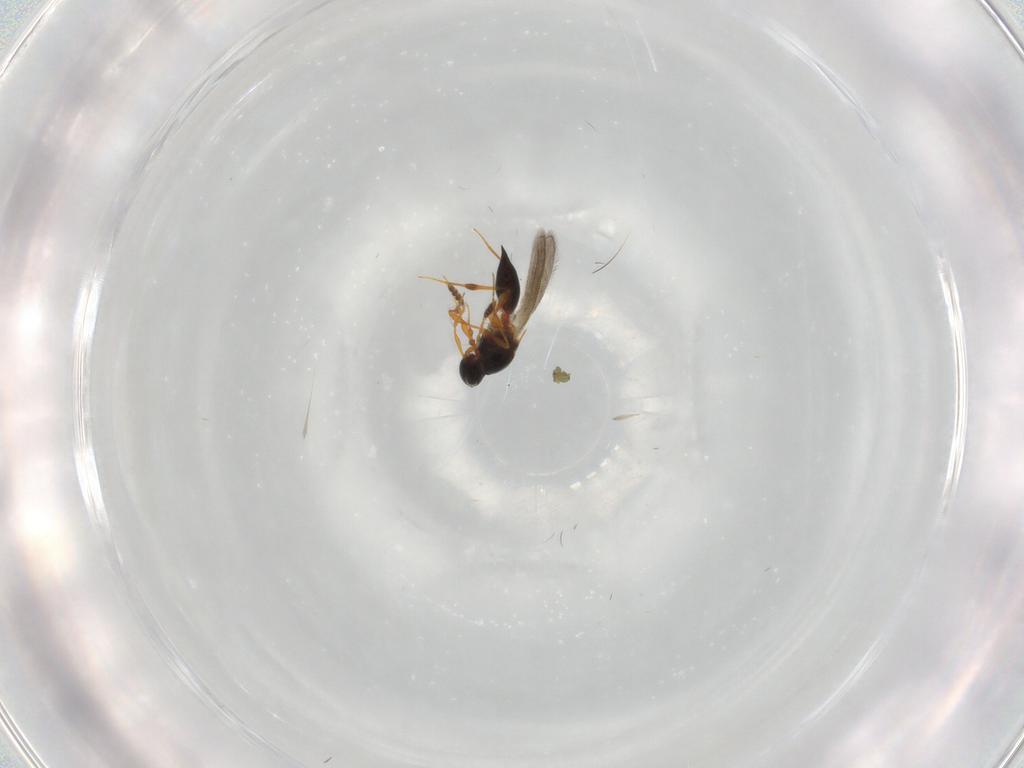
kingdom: Animalia
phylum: Arthropoda
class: Insecta
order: Hymenoptera
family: Scelionidae
